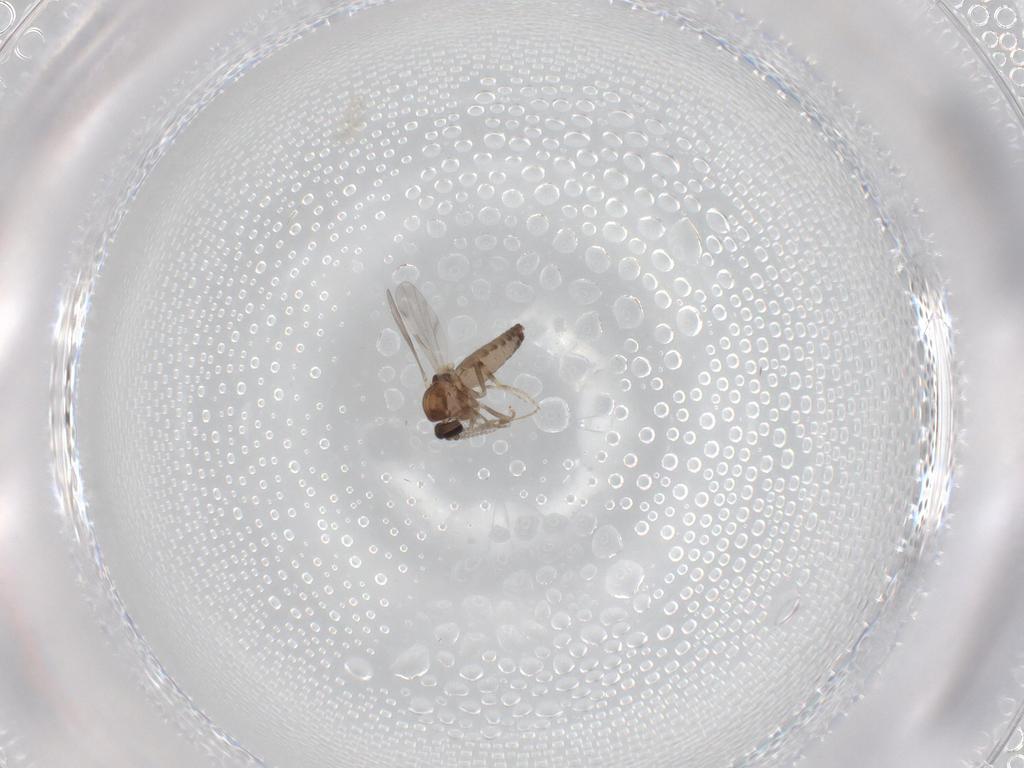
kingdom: Animalia
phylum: Arthropoda
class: Insecta
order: Diptera
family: Ceratopogonidae
